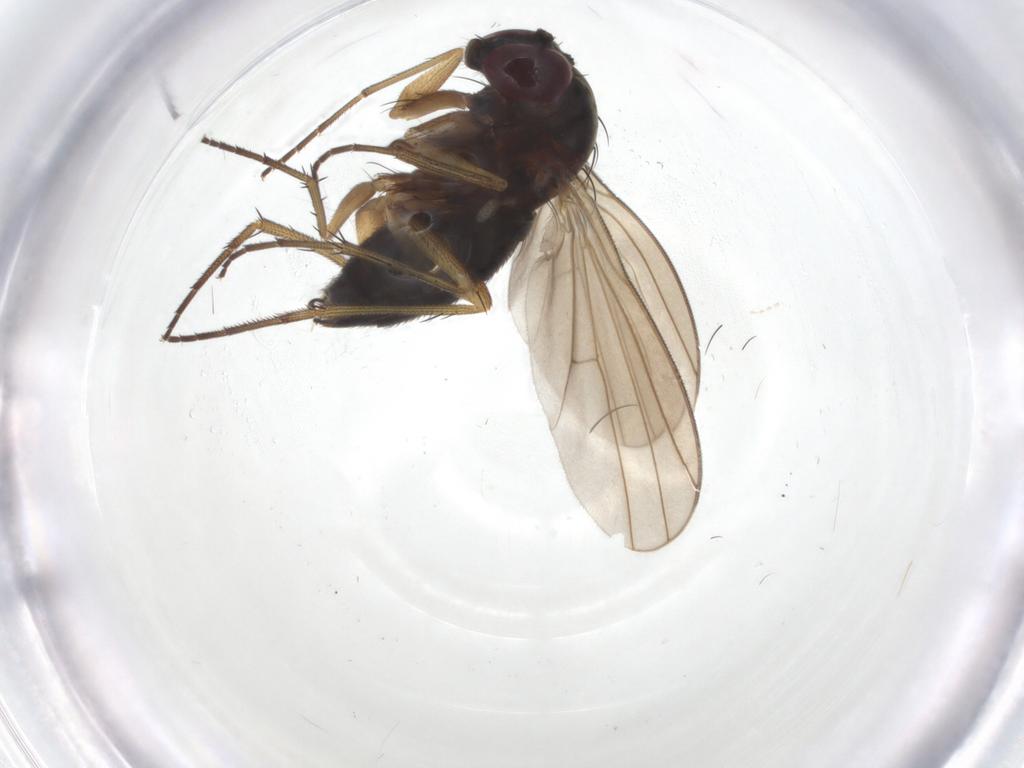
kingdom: Animalia
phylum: Arthropoda
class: Insecta
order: Diptera
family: Dolichopodidae
